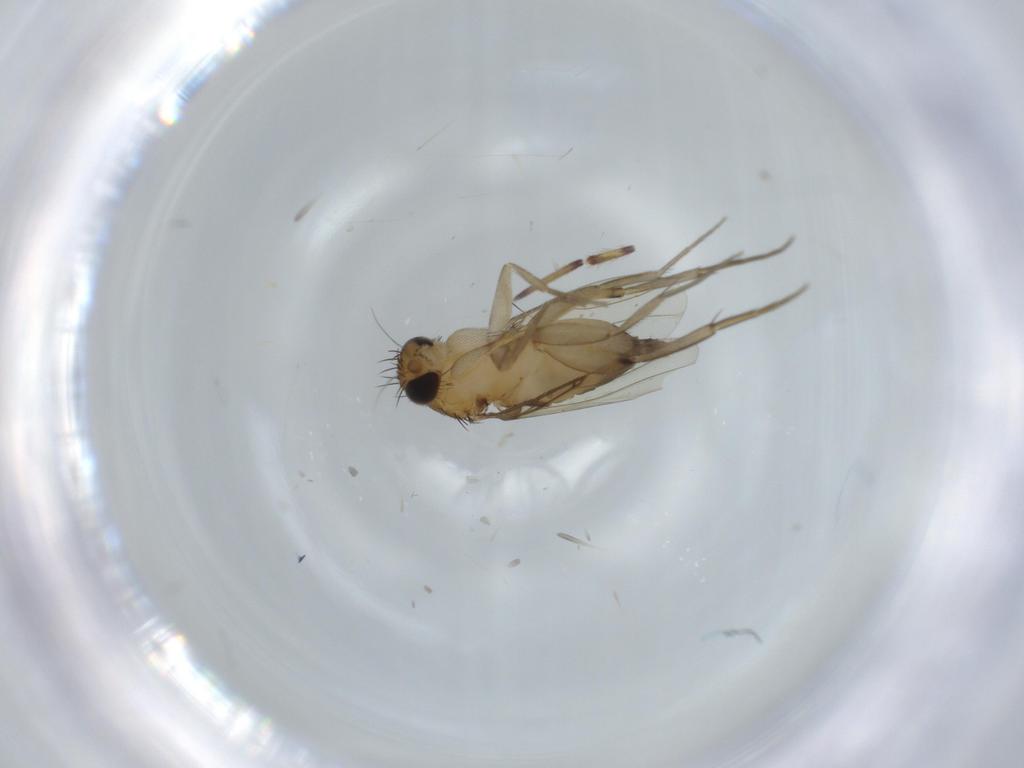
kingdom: Animalia
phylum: Arthropoda
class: Insecta
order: Diptera
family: Phoridae
